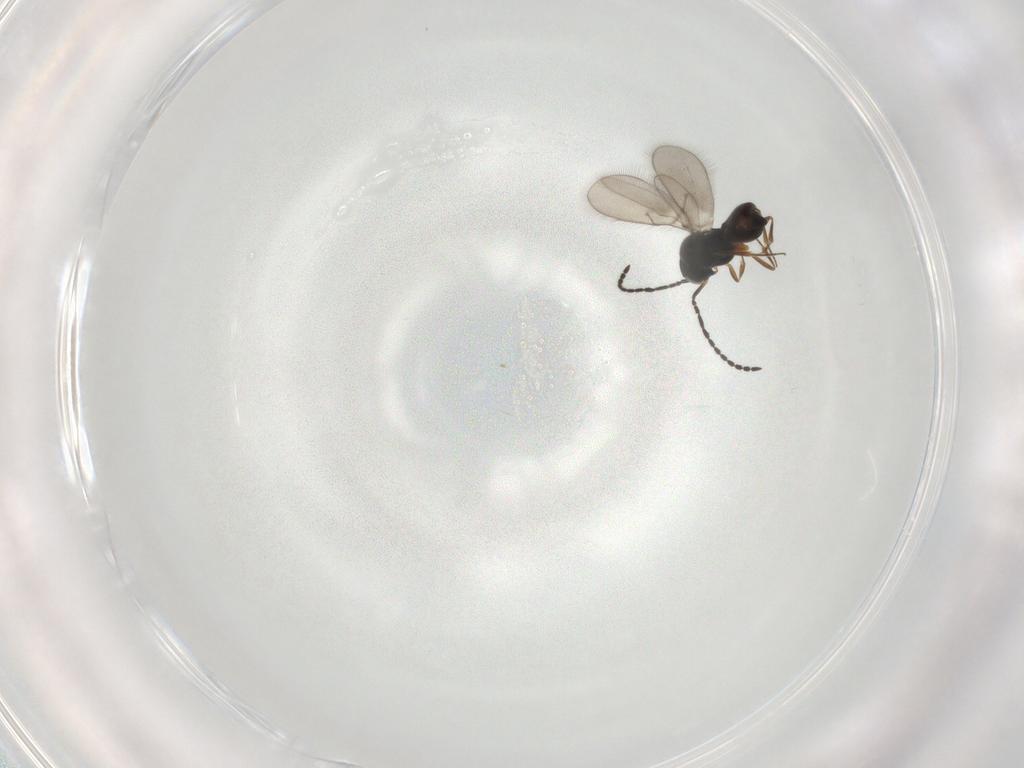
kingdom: Animalia
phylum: Arthropoda
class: Insecta
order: Hymenoptera
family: Scelionidae
